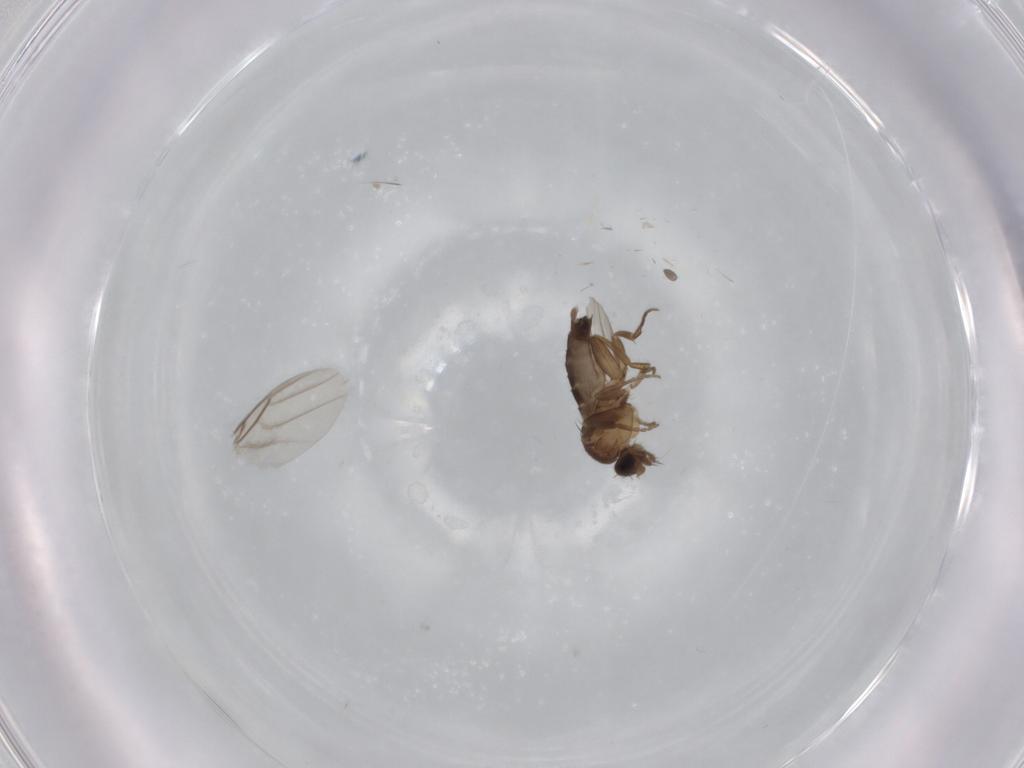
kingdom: Animalia
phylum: Arthropoda
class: Insecta
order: Diptera
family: Phoridae
